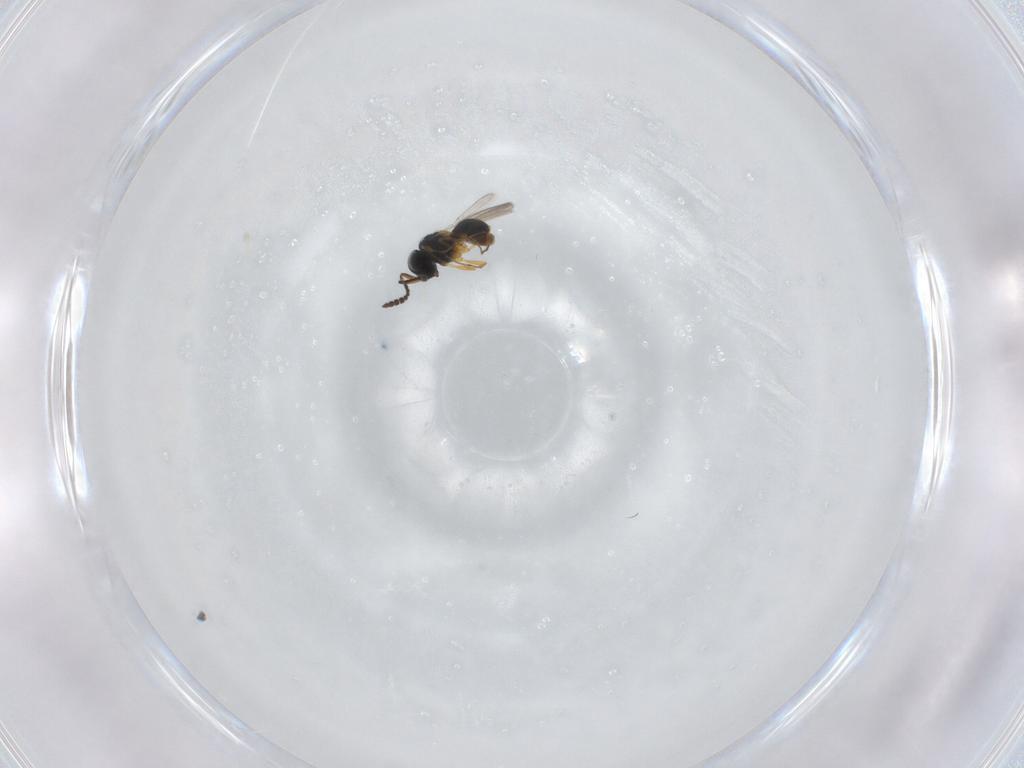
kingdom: Animalia
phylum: Arthropoda
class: Insecta
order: Hymenoptera
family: Scelionidae
